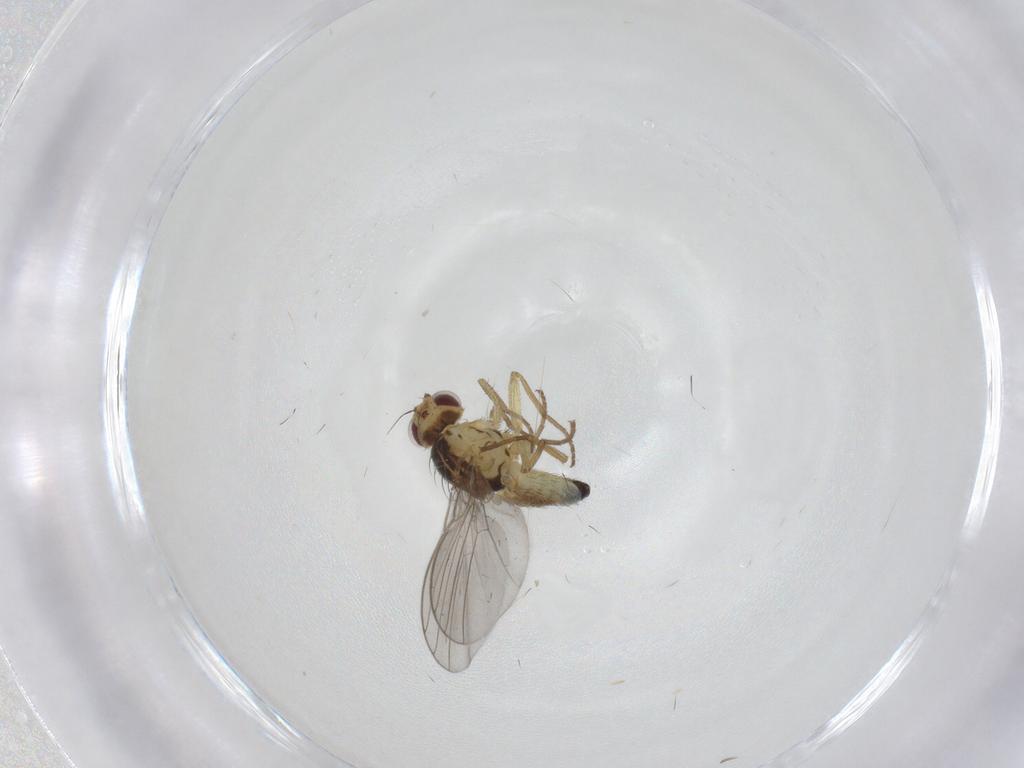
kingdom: Animalia
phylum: Arthropoda
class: Insecta
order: Diptera
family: Agromyzidae
